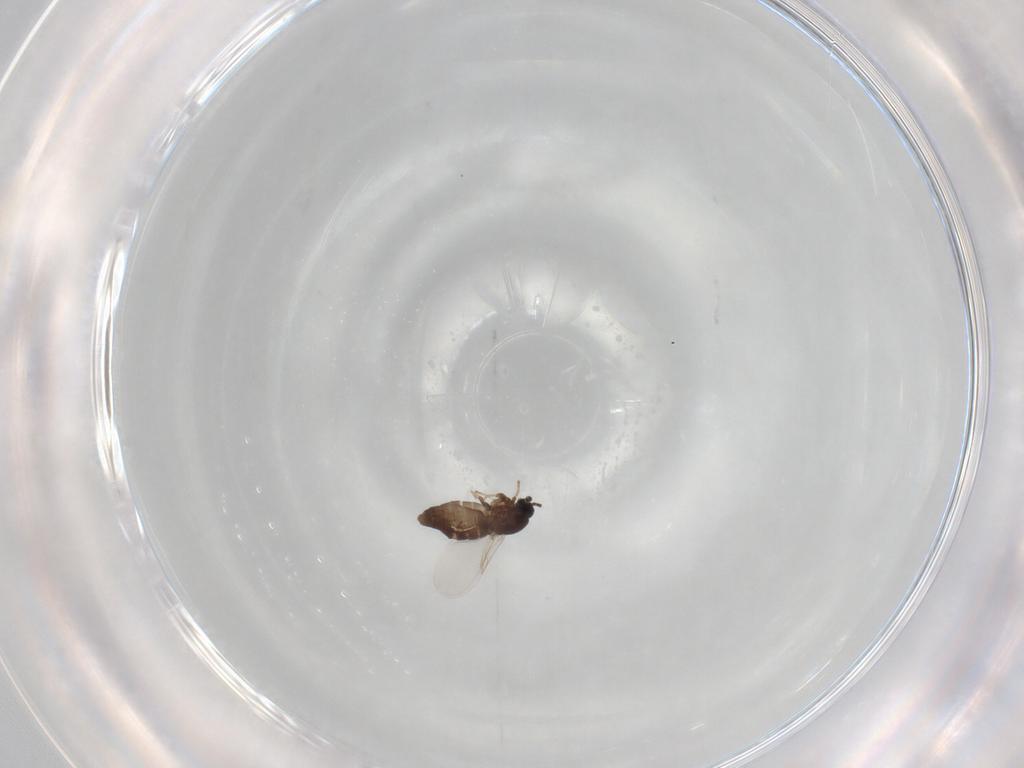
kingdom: Animalia
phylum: Arthropoda
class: Insecta
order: Diptera
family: Scatopsidae
